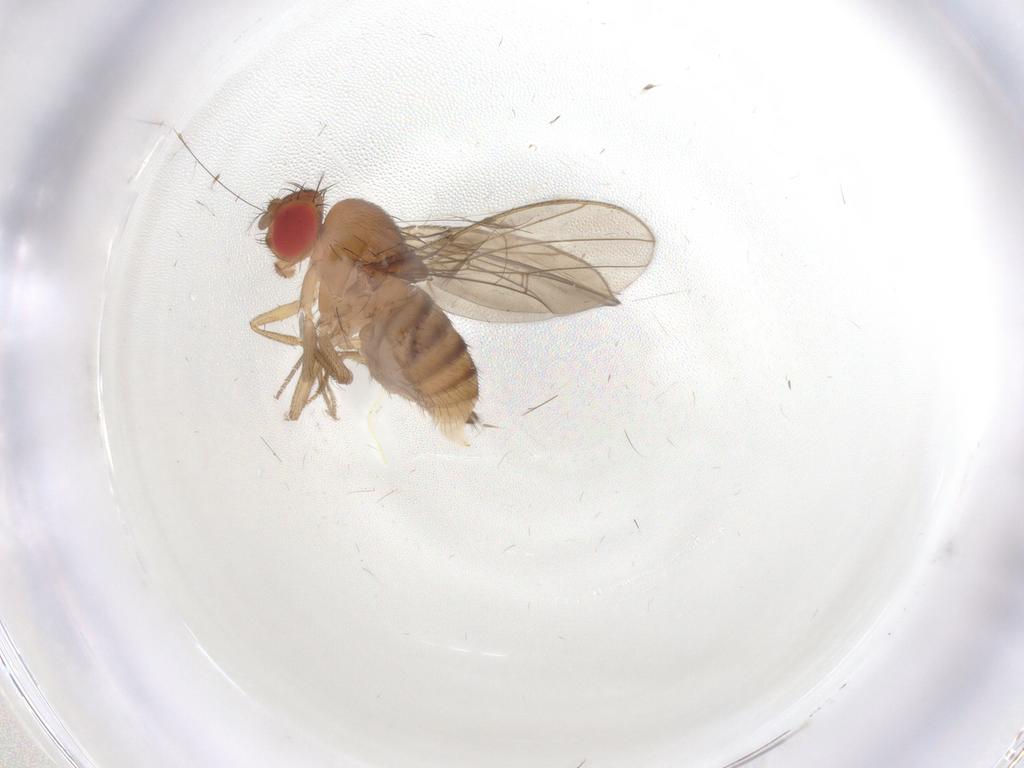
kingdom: Animalia
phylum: Arthropoda
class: Insecta
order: Diptera
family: Drosophilidae
